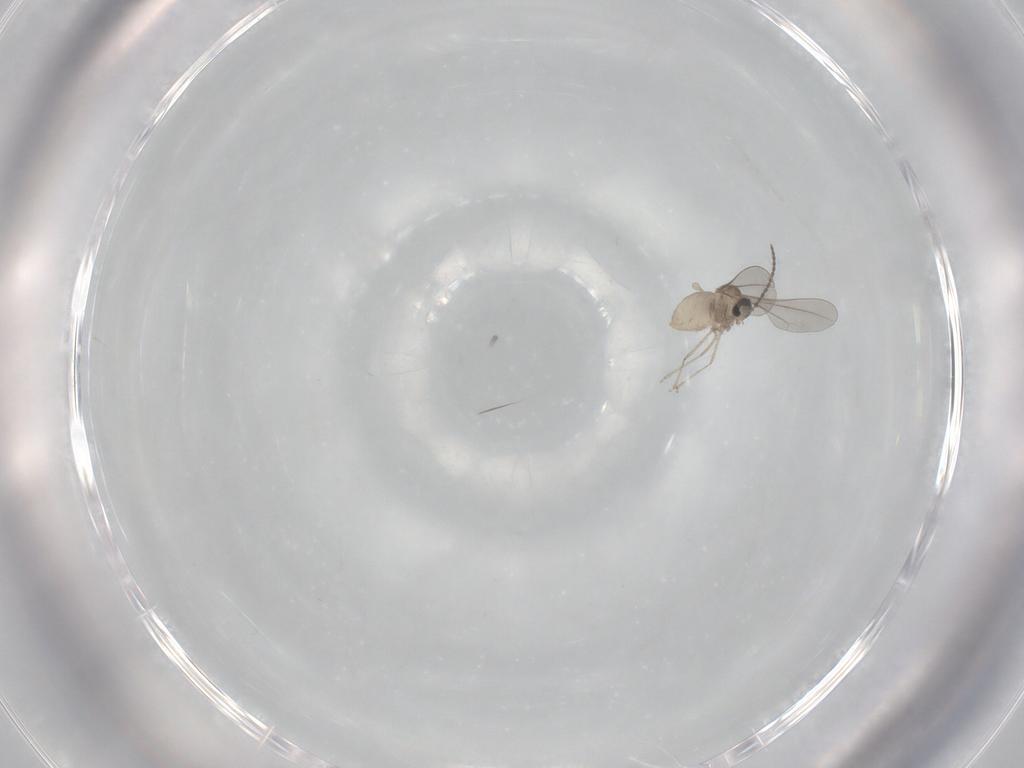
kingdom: Animalia
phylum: Arthropoda
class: Insecta
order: Diptera
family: Cecidomyiidae
